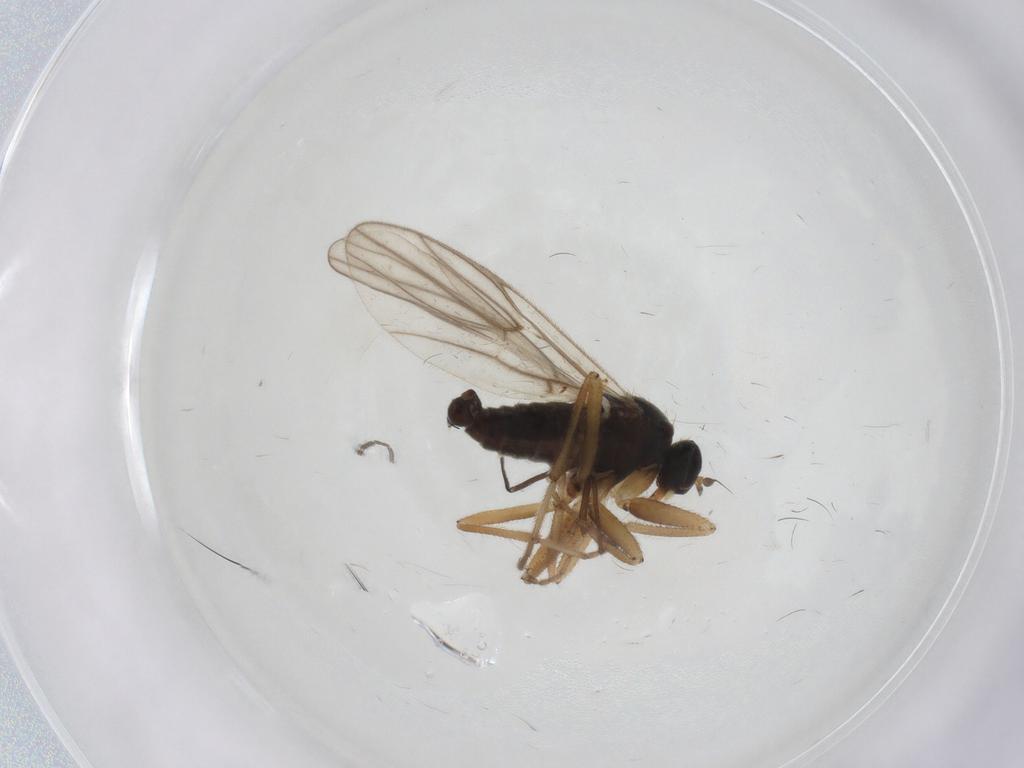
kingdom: Animalia
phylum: Arthropoda
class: Insecta
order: Diptera
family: Hybotidae
